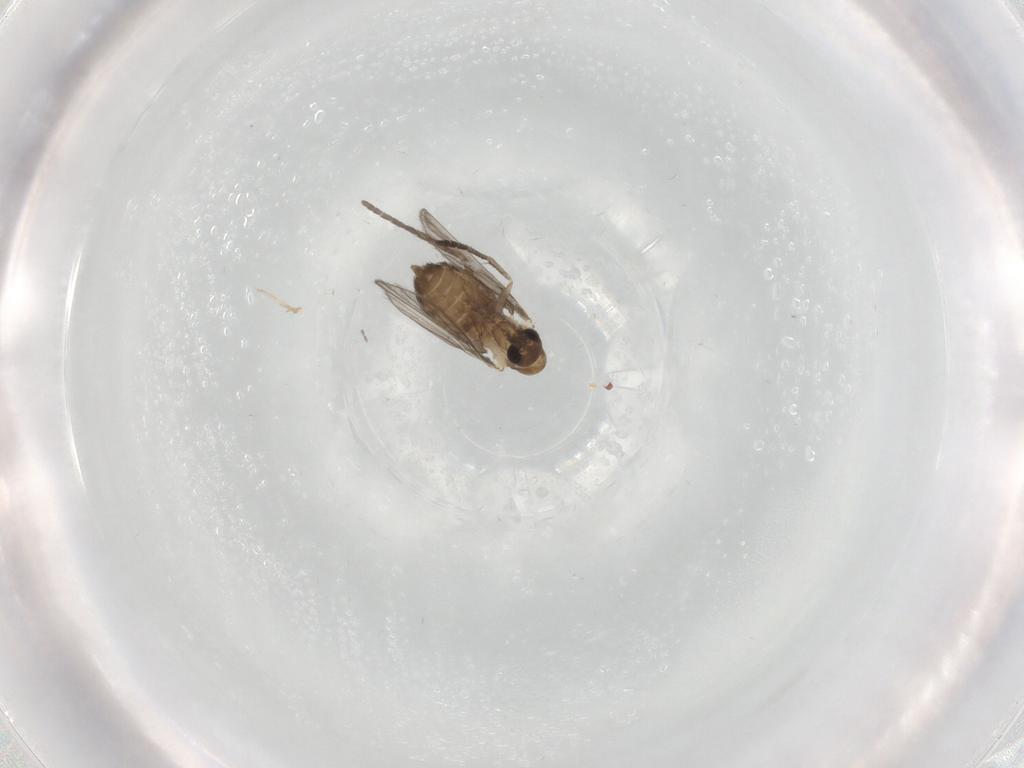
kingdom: Animalia
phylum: Arthropoda
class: Insecta
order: Diptera
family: Psychodidae
